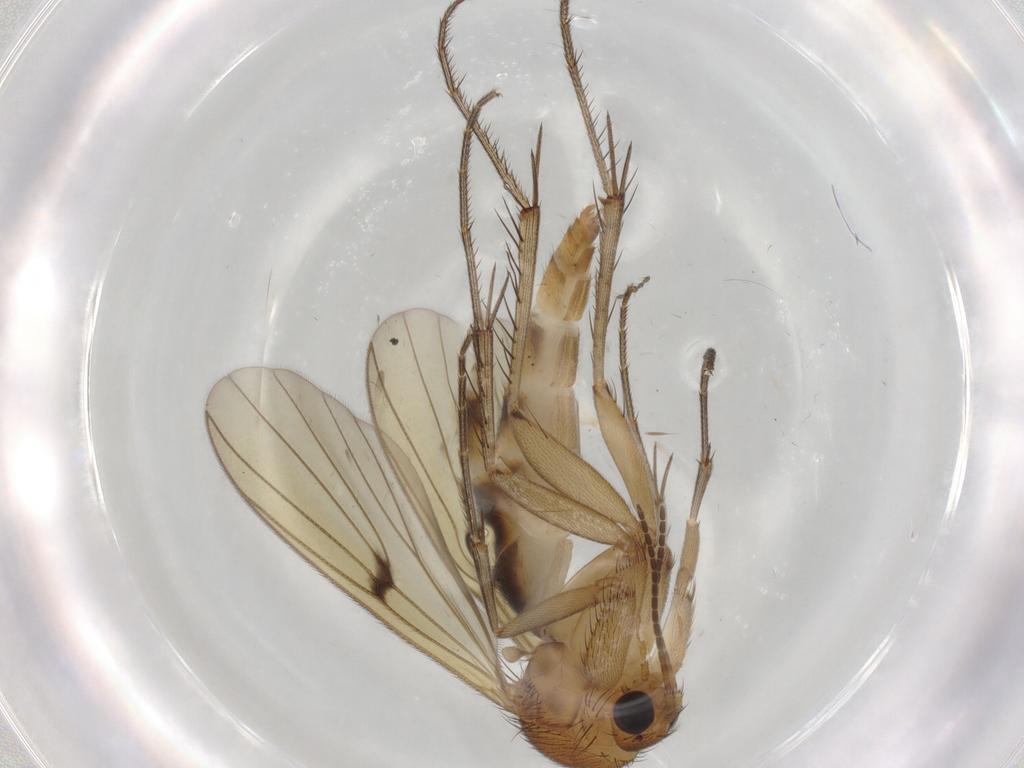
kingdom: Animalia
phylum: Arthropoda
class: Insecta
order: Diptera
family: Mycetophilidae
